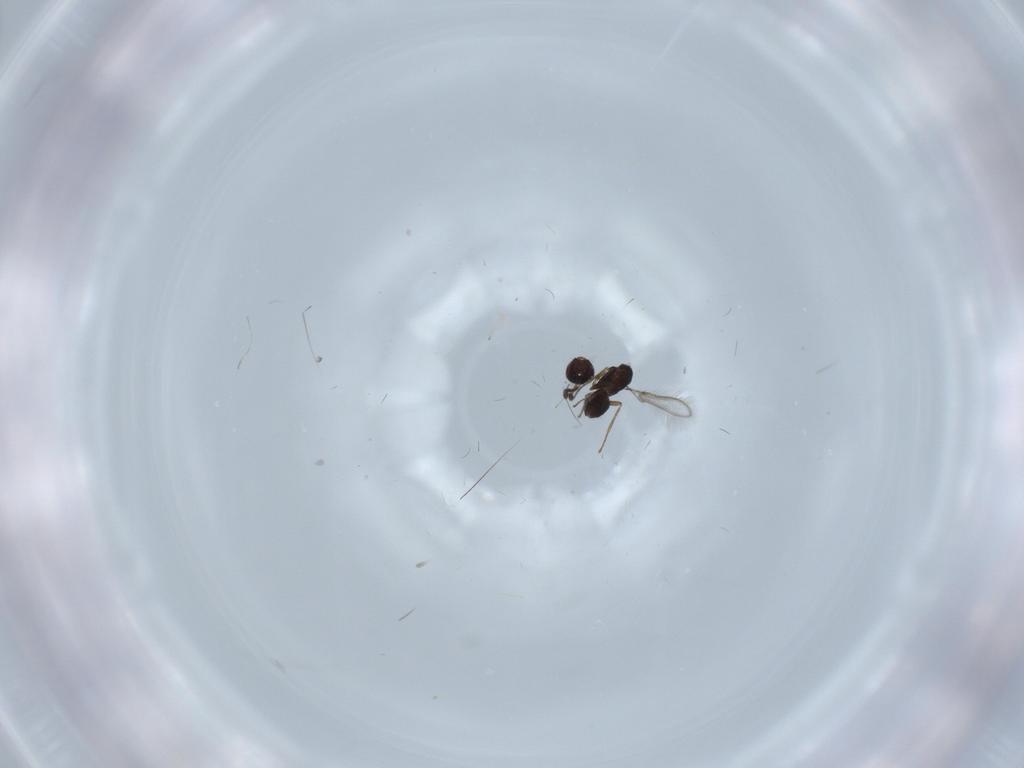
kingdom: Animalia
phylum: Arthropoda
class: Insecta
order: Hymenoptera
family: Mymaridae
